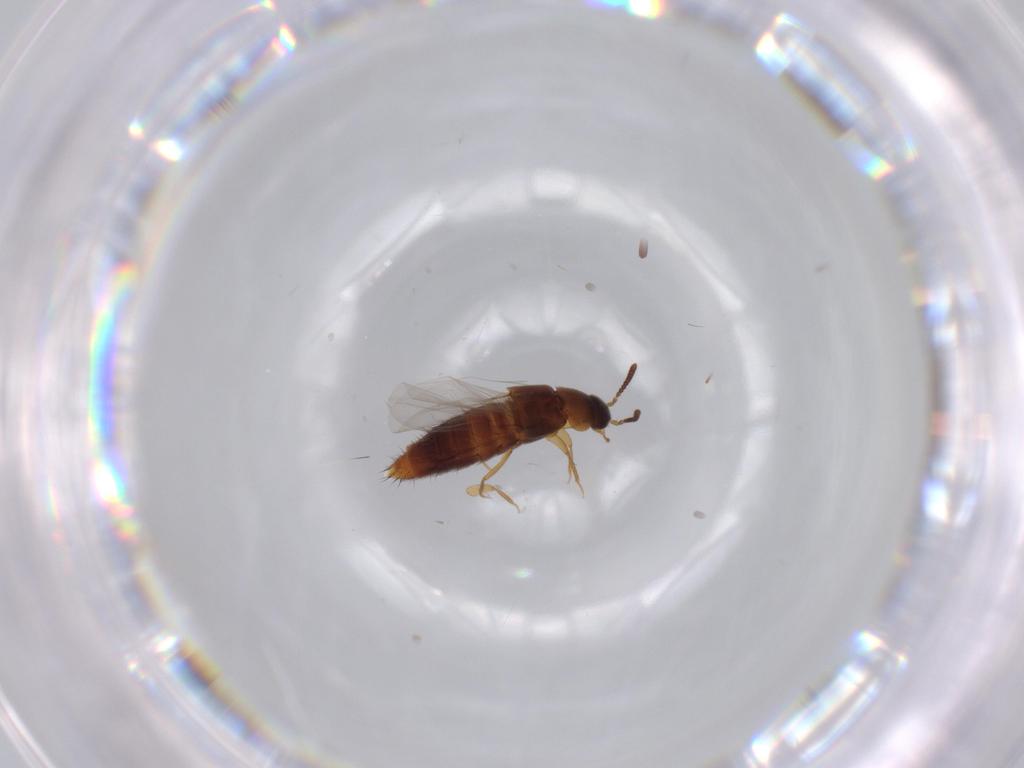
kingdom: Animalia
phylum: Arthropoda
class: Insecta
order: Coleoptera
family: Staphylinidae
